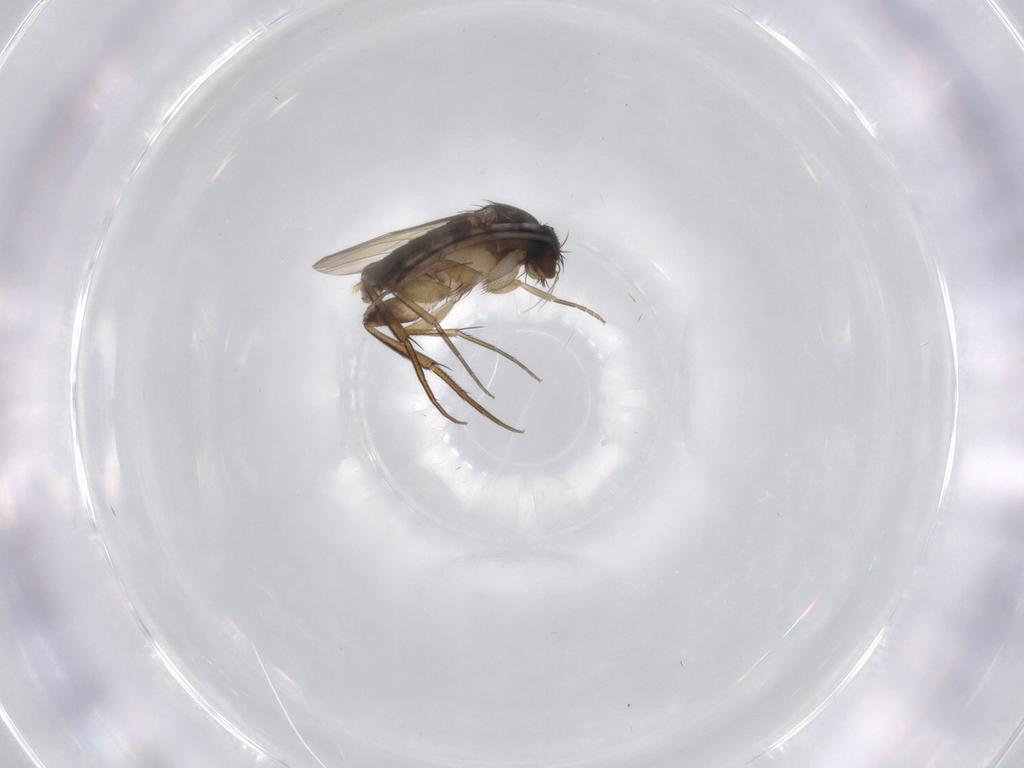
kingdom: Animalia
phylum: Arthropoda
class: Insecta
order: Diptera
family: Phoridae
